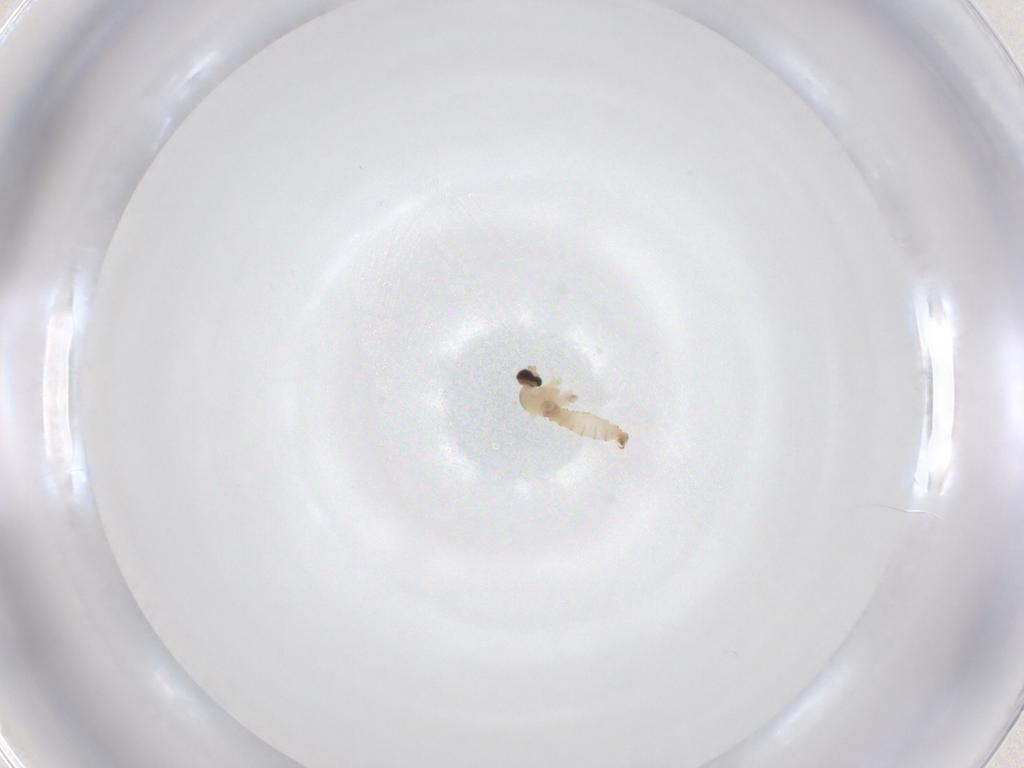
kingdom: Animalia
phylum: Arthropoda
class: Insecta
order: Diptera
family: Cecidomyiidae
